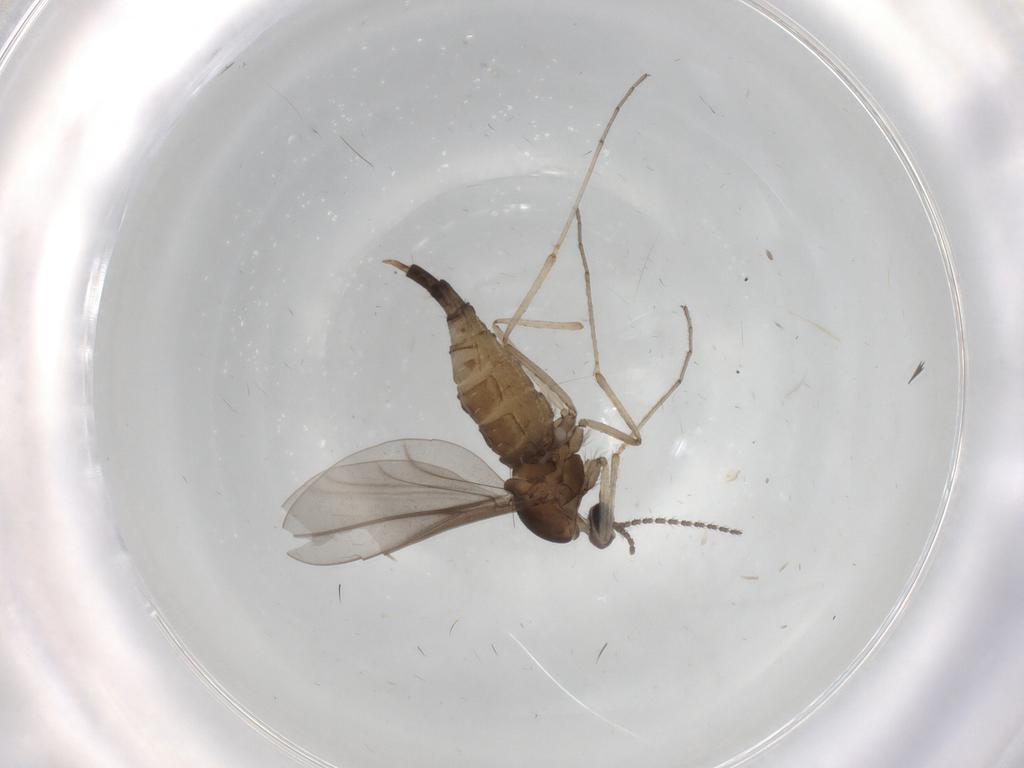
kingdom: Animalia
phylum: Arthropoda
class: Insecta
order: Diptera
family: Cecidomyiidae
